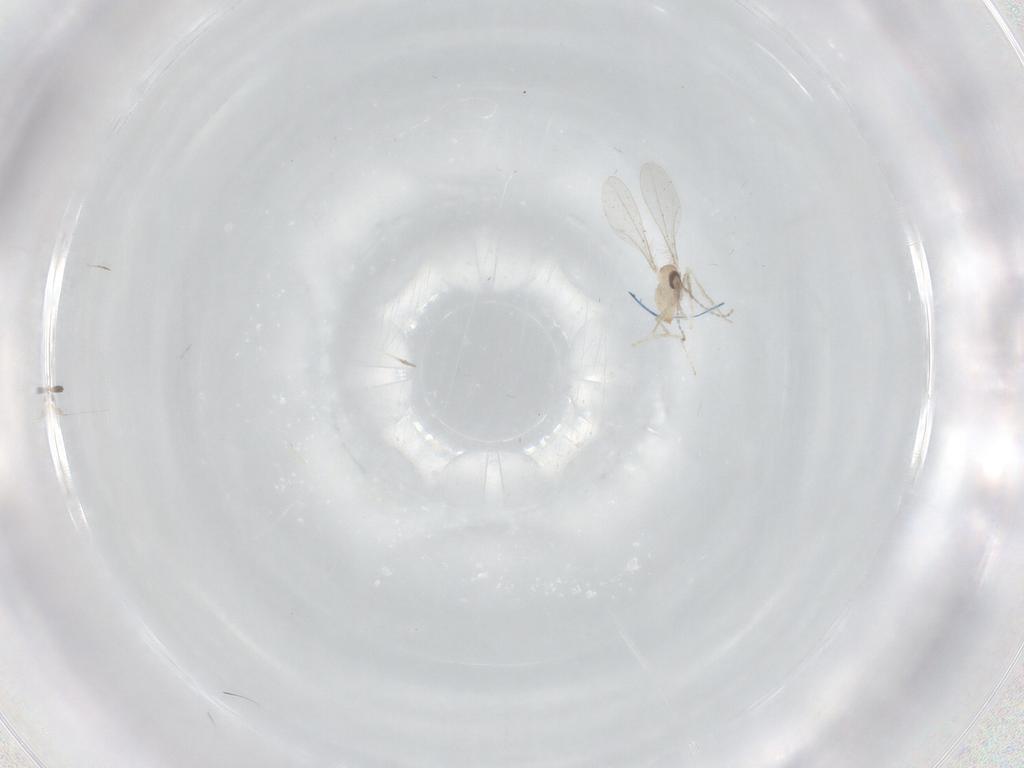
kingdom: Animalia
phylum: Arthropoda
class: Insecta
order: Diptera
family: Cecidomyiidae
